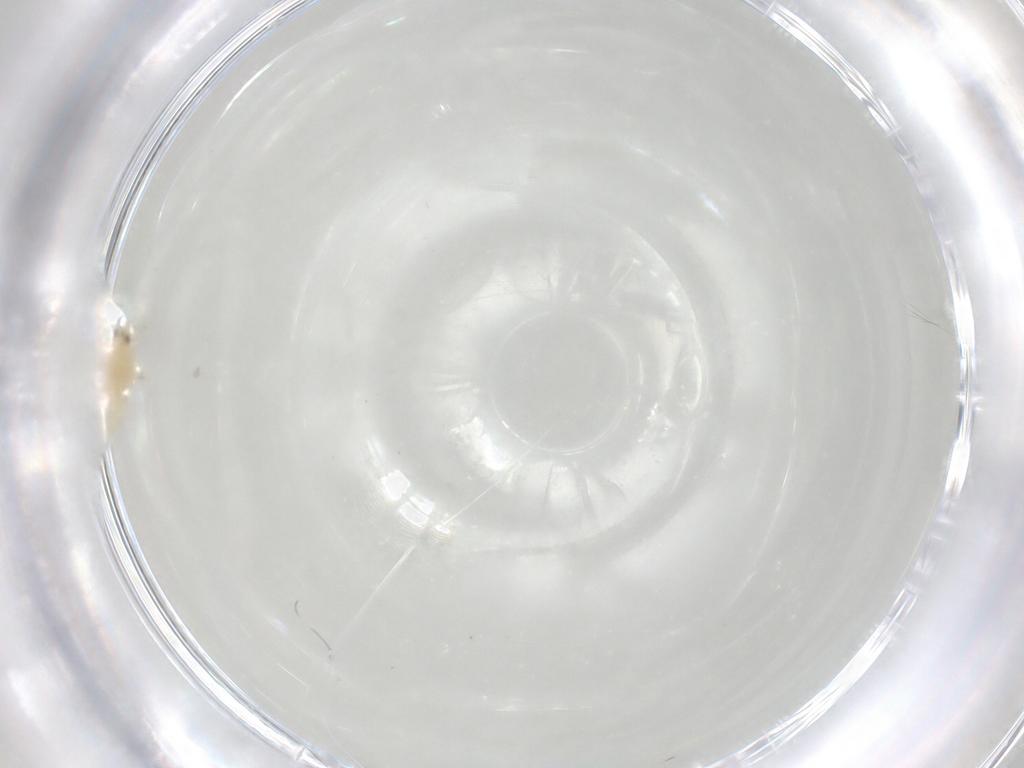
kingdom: Animalia
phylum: Arthropoda
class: Insecta
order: Hemiptera
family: Aleyrodidae
